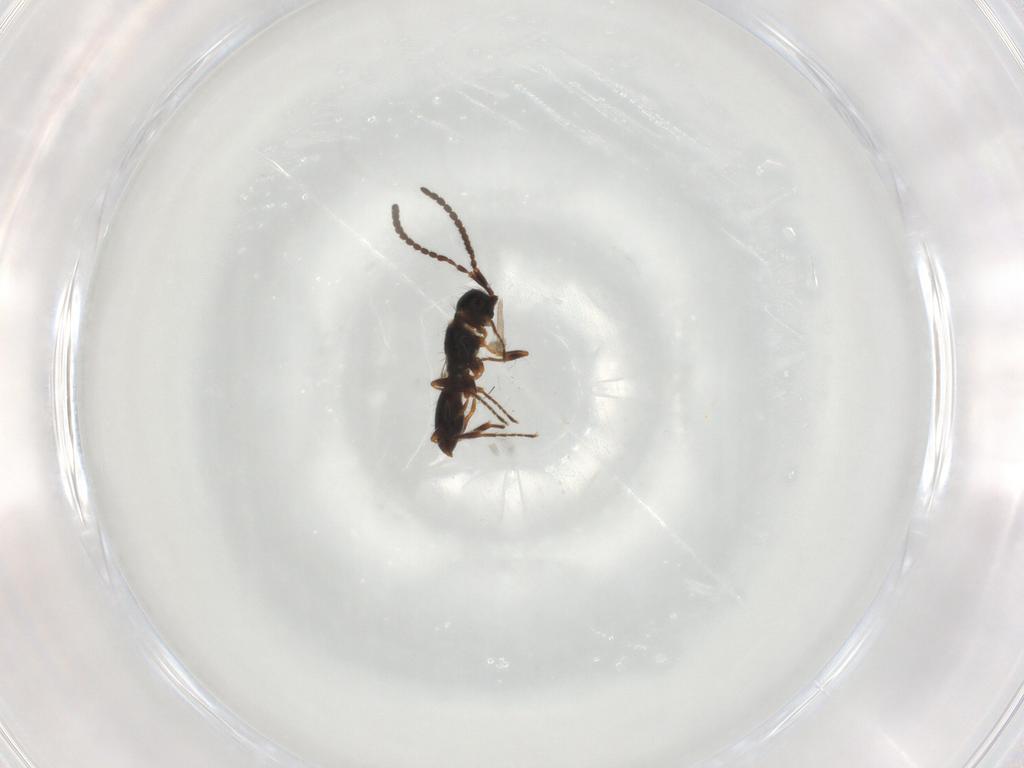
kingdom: Animalia
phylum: Arthropoda
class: Insecta
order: Hymenoptera
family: Diapriidae
